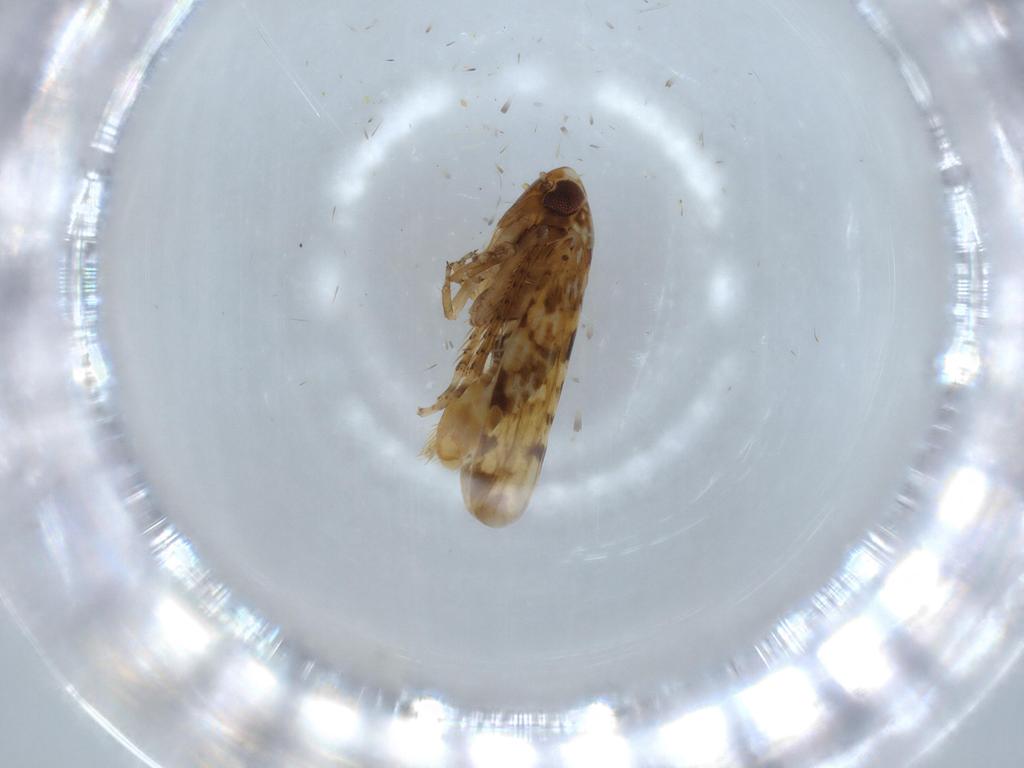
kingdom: Animalia
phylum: Arthropoda
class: Insecta
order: Hemiptera
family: Cicadellidae
